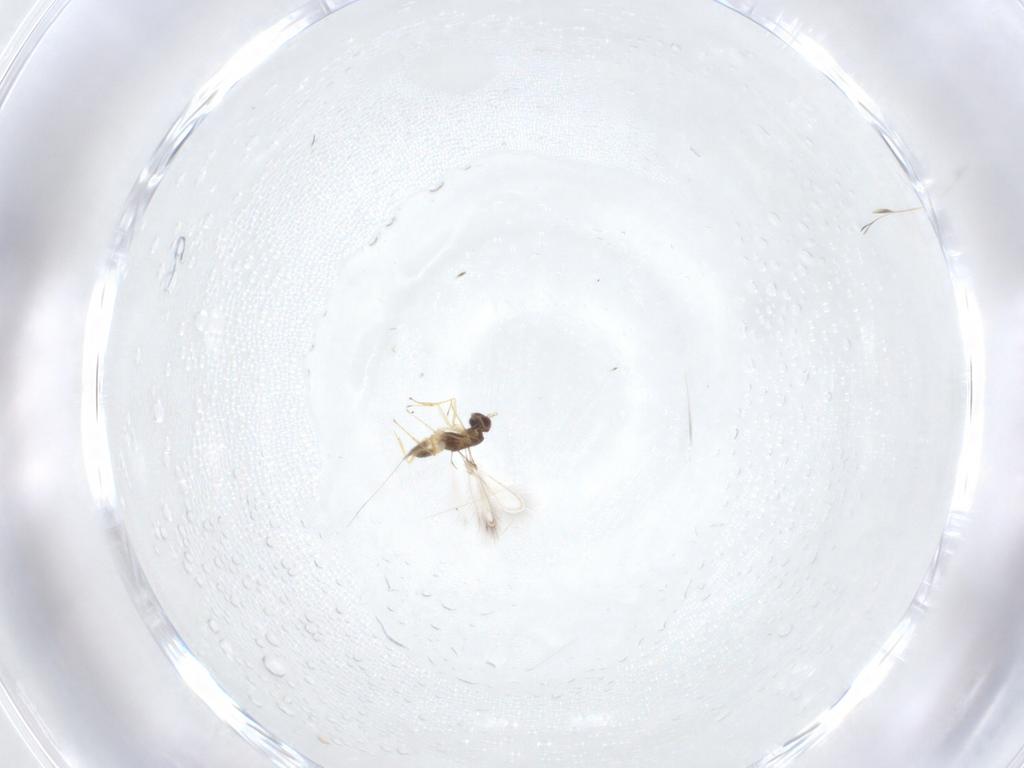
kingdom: Animalia
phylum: Arthropoda
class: Insecta
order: Hymenoptera
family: Mymaridae
